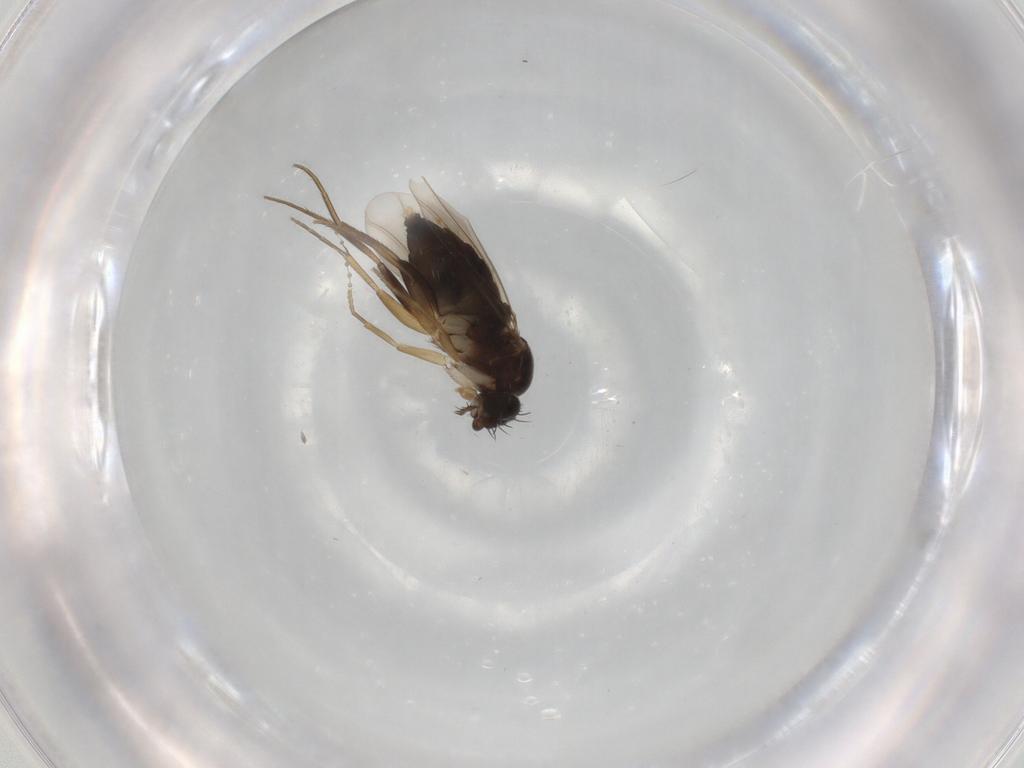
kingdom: Animalia
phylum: Arthropoda
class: Insecta
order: Diptera
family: Phoridae
